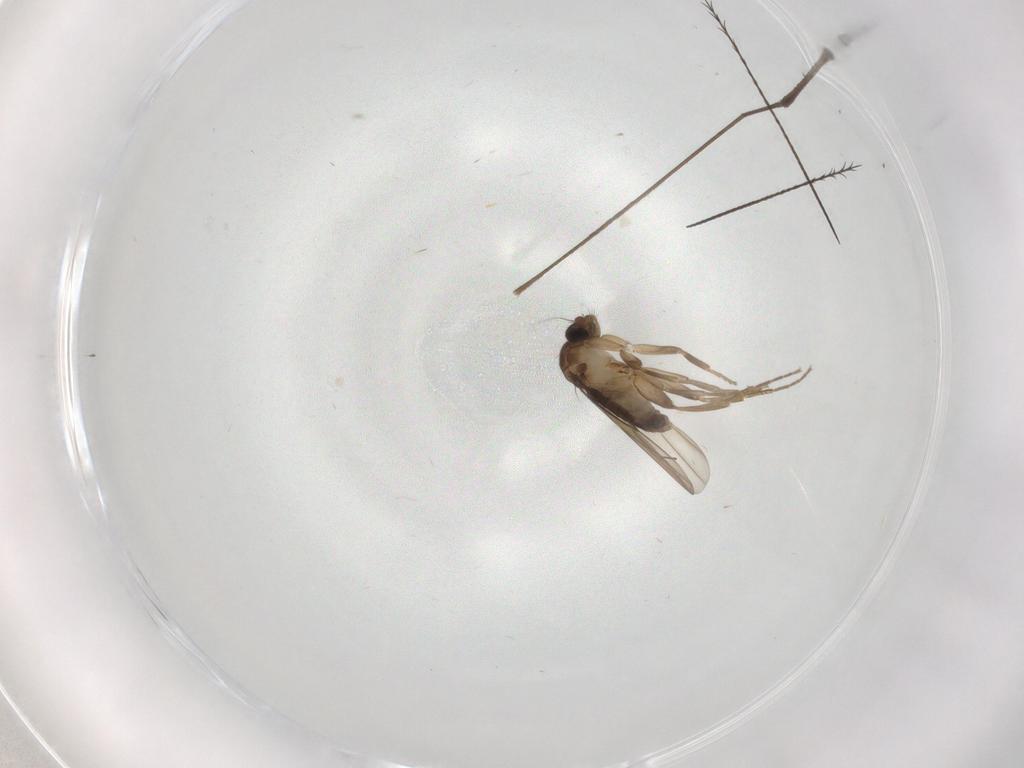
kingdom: Animalia
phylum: Arthropoda
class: Insecta
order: Diptera
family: Phoridae
